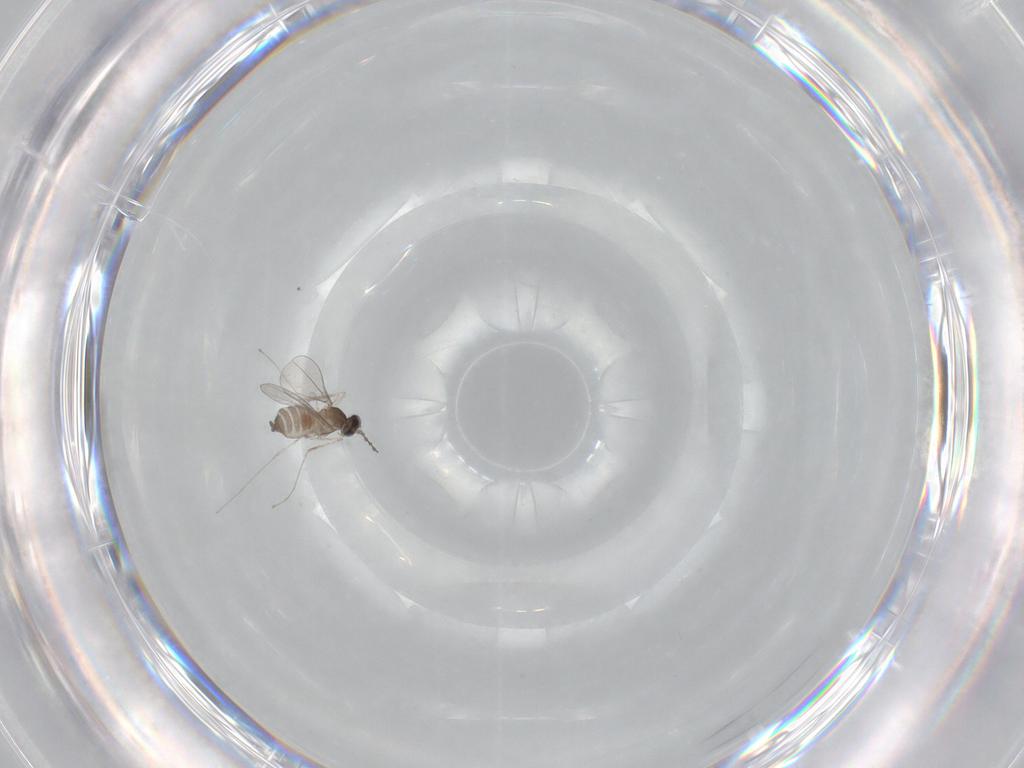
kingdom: Animalia
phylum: Arthropoda
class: Insecta
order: Diptera
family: Cecidomyiidae
